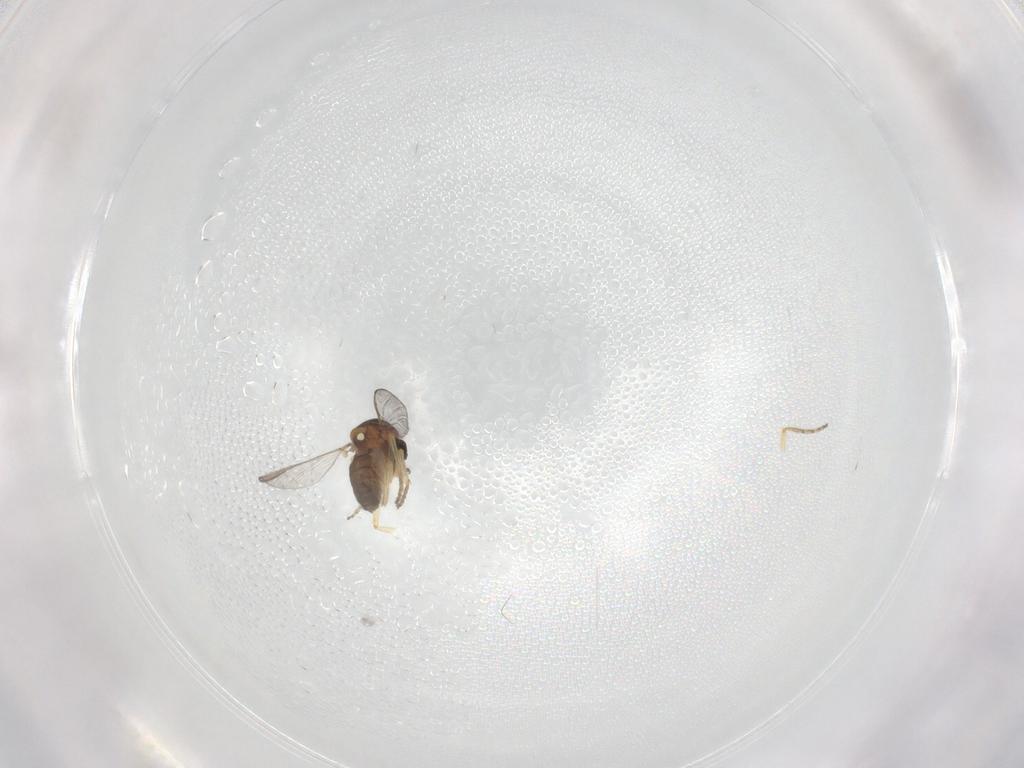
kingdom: Animalia
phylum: Arthropoda
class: Insecta
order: Diptera
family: Ceratopogonidae
